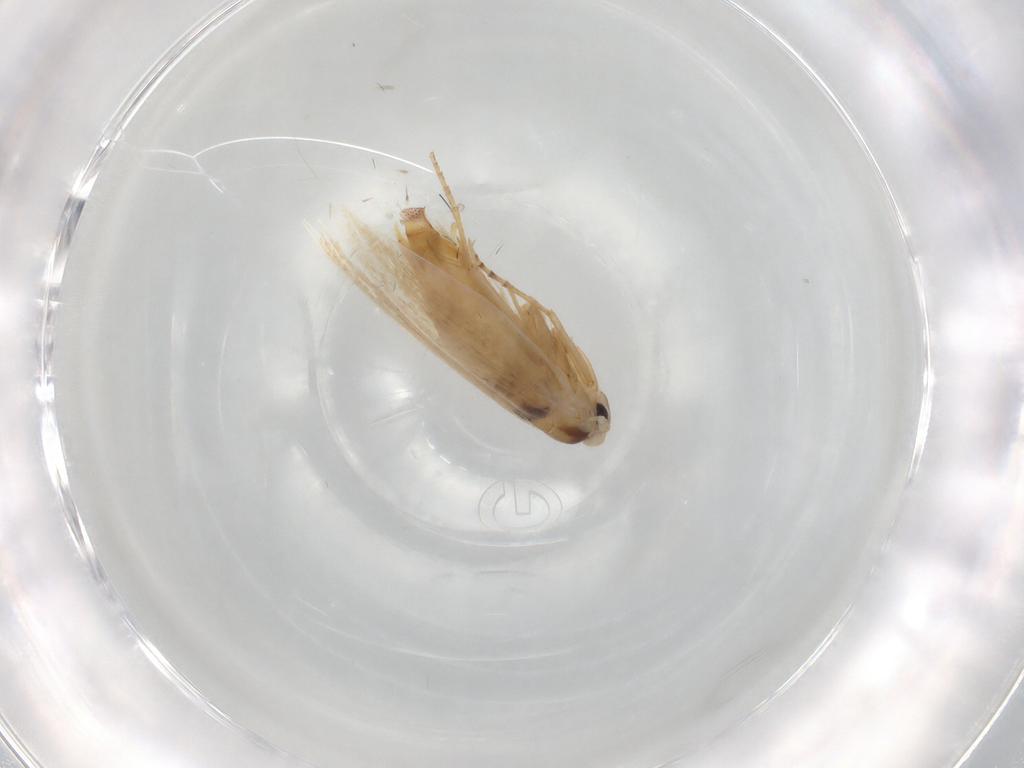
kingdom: Animalia
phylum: Arthropoda
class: Insecta
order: Lepidoptera
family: Bucculatricidae
